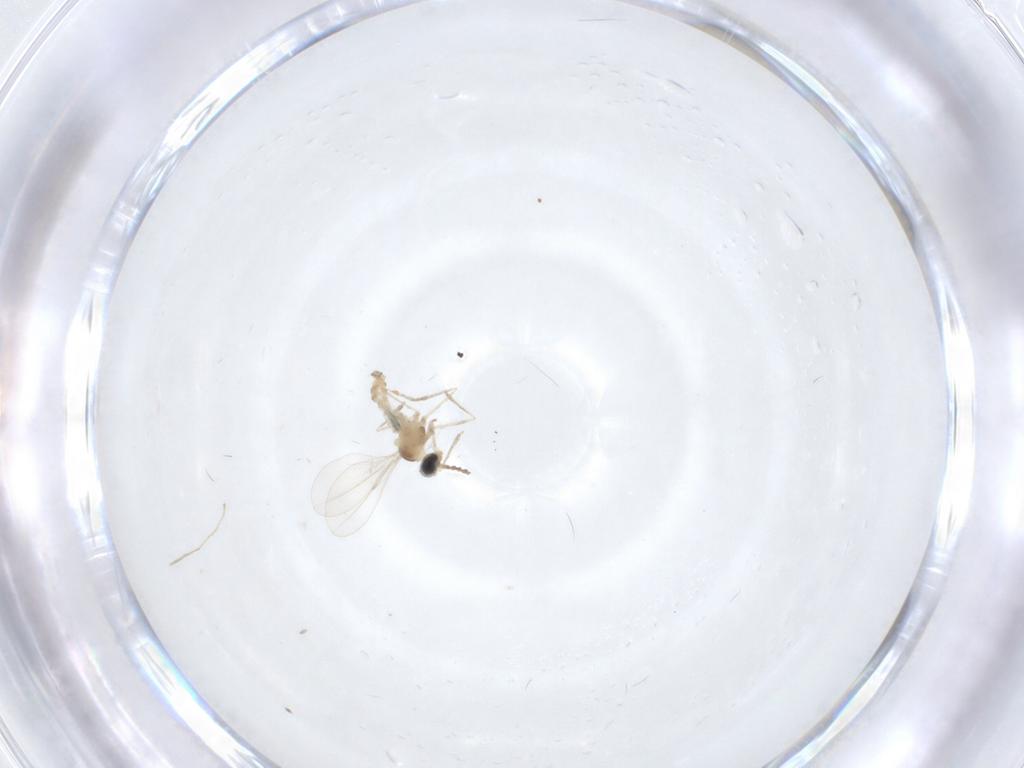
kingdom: Animalia
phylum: Arthropoda
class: Insecta
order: Diptera
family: Cecidomyiidae
